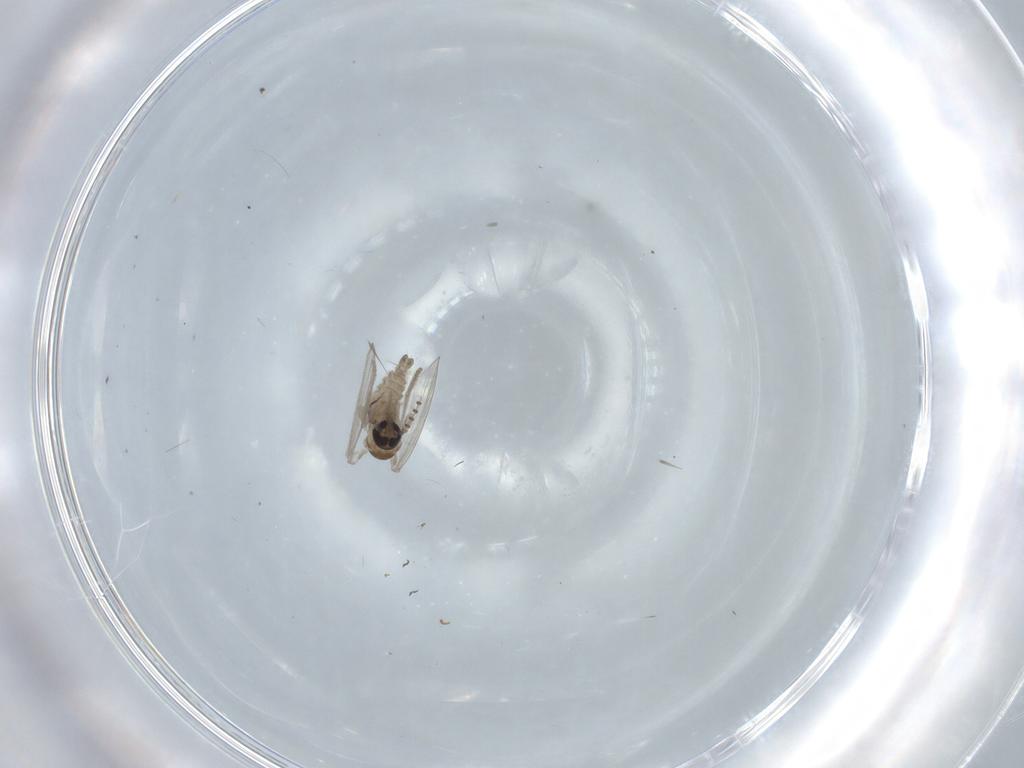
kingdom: Animalia
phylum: Arthropoda
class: Insecta
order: Diptera
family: Psychodidae
